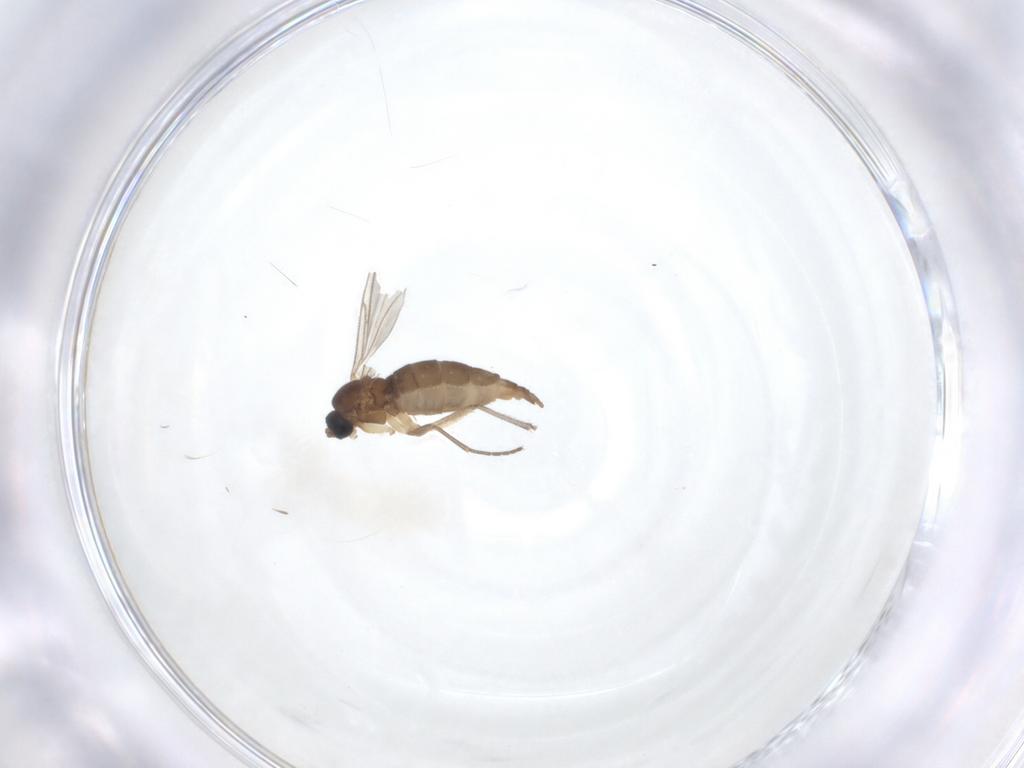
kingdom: Animalia
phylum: Arthropoda
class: Insecta
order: Diptera
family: Sciaridae
